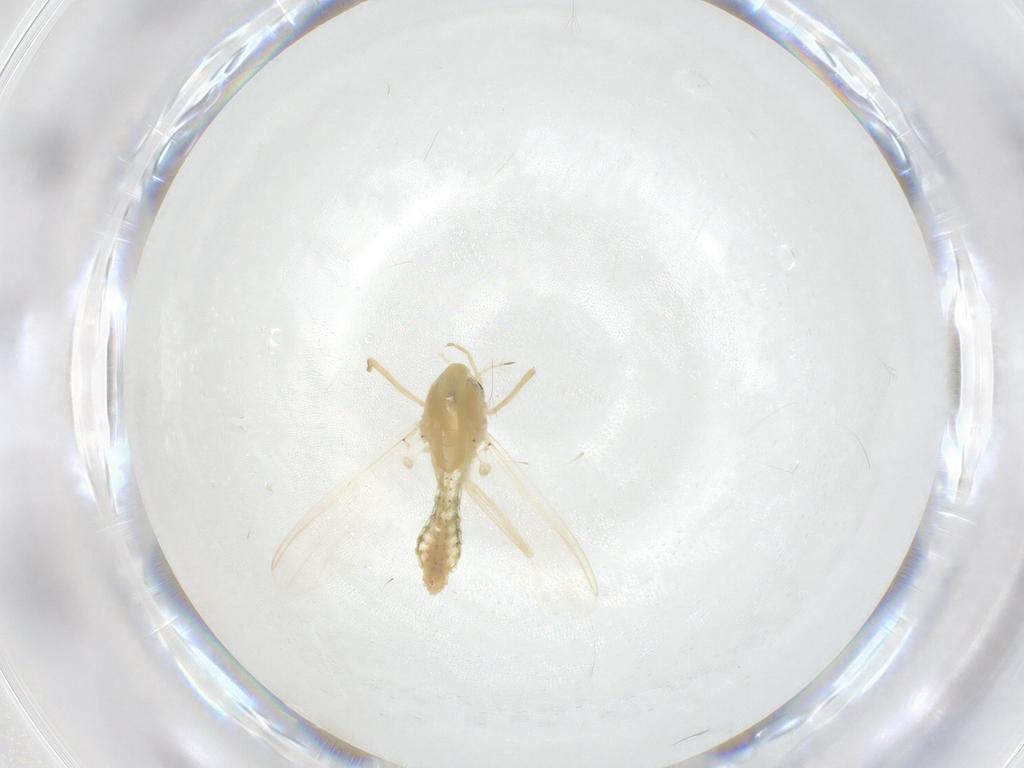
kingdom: Animalia
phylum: Arthropoda
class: Insecta
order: Diptera
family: Chironomidae
